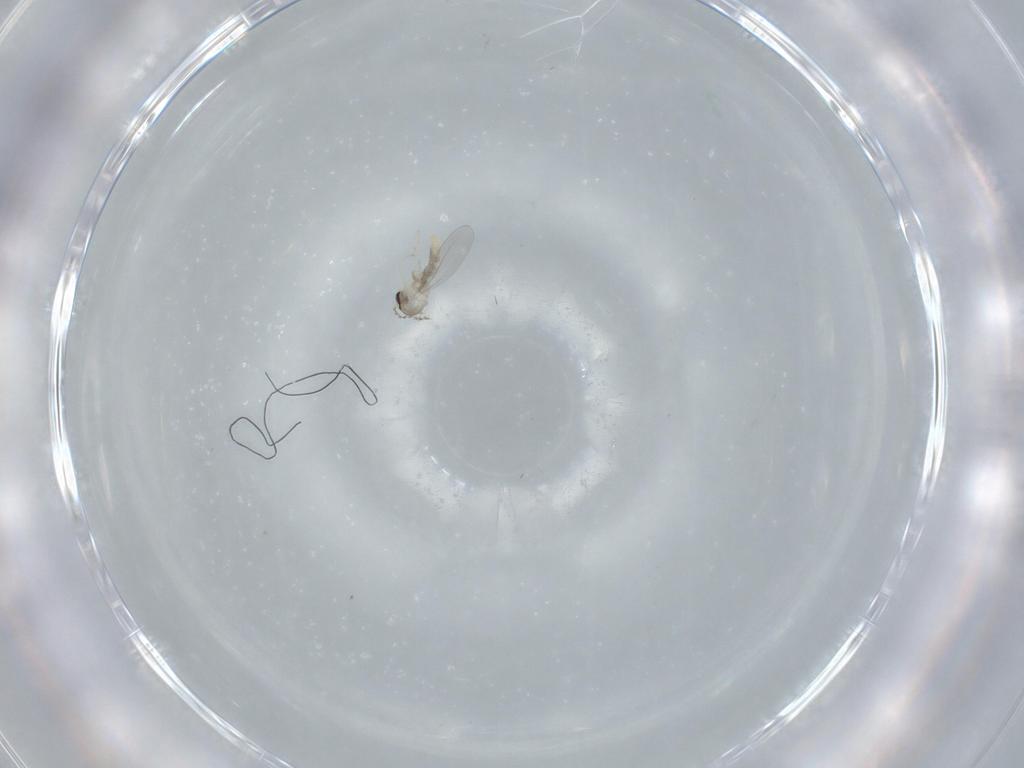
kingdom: Animalia
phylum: Arthropoda
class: Insecta
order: Diptera
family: Cecidomyiidae
